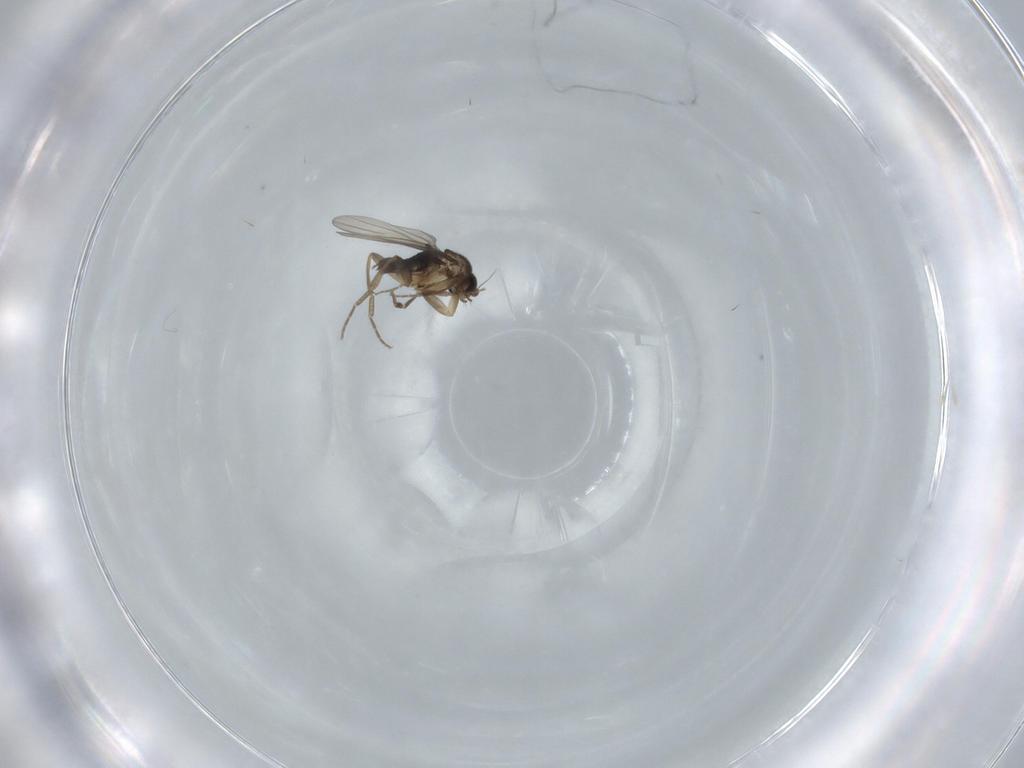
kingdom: Animalia
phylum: Arthropoda
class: Insecta
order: Diptera
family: Phoridae
